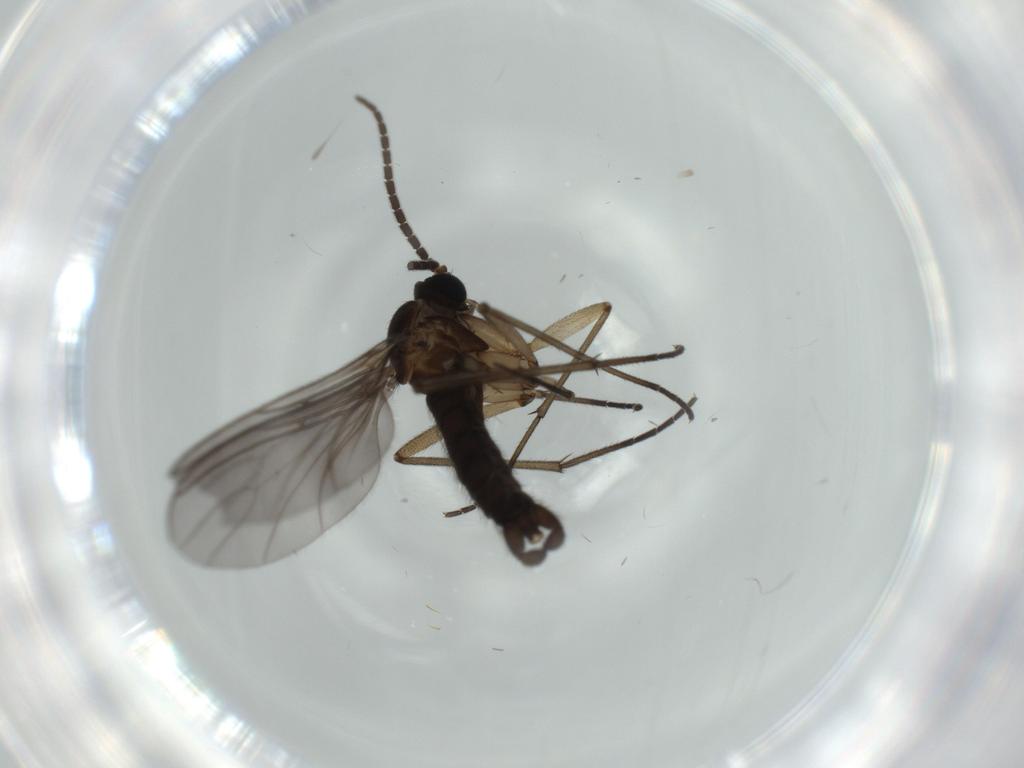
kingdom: Animalia
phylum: Arthropoda
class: Insecta
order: Diptera
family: Sciaridae
